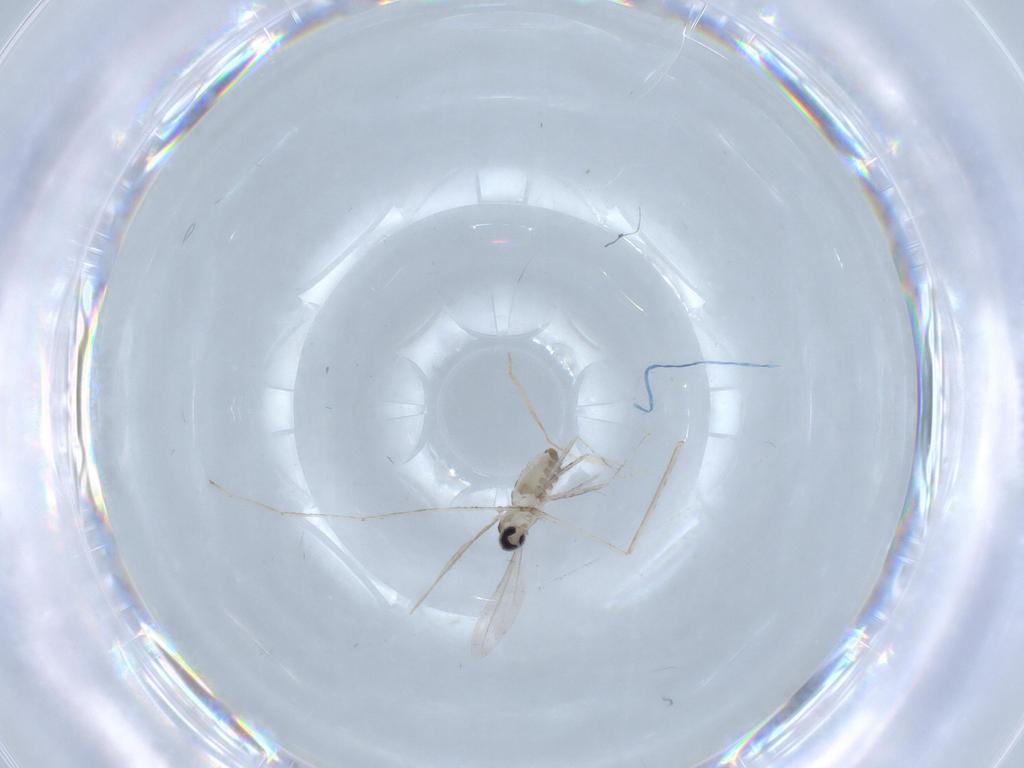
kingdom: Animalia
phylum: Arthropoda
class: Insecta
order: Diptera
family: Cecidomyiidae
